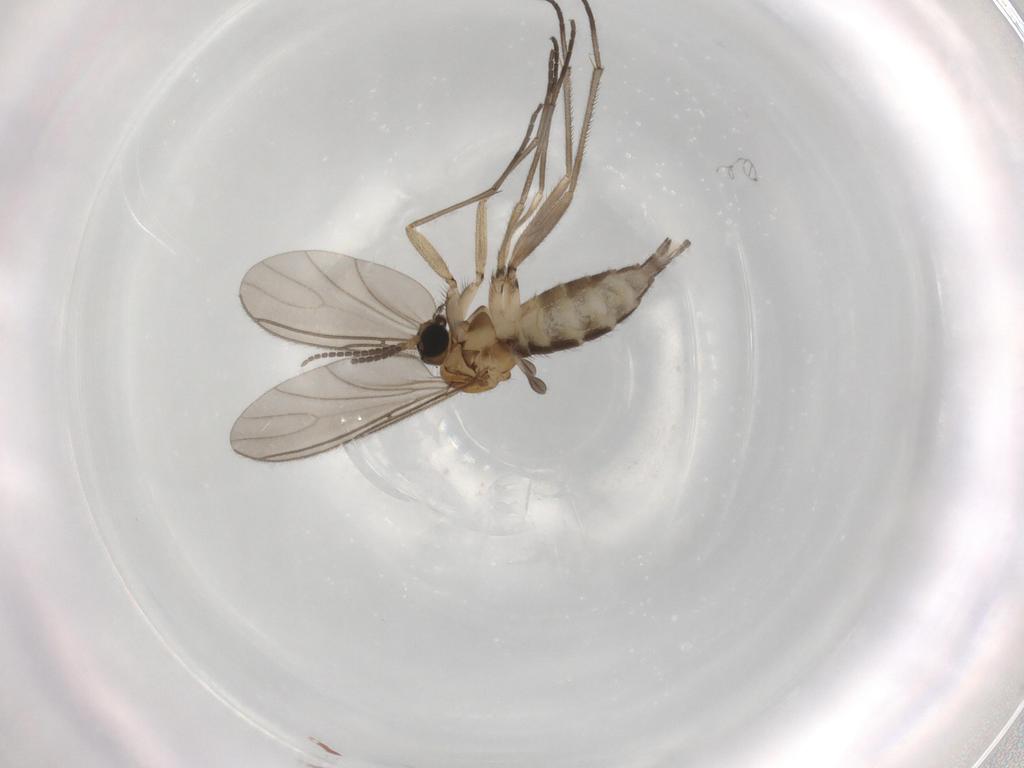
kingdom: Animalia
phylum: Arthropoda
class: Insecta
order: Diptera
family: Sciaridae
